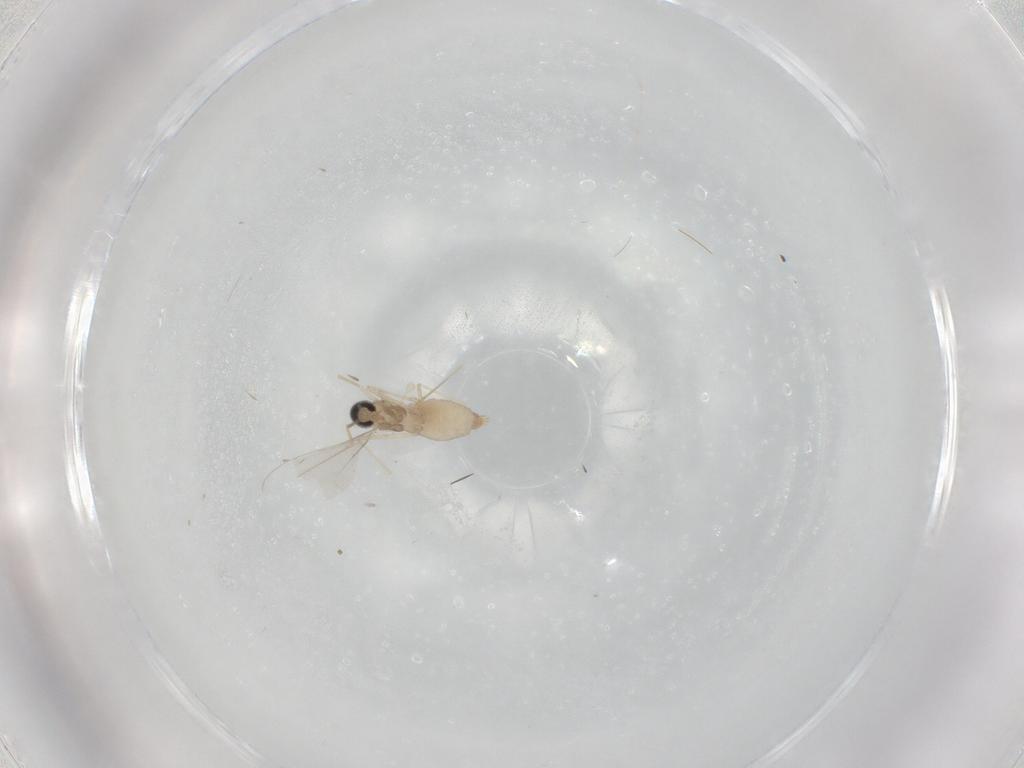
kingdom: Animalia
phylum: Arthropoda
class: Insecta
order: Diptera
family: Cecidomyiidae
